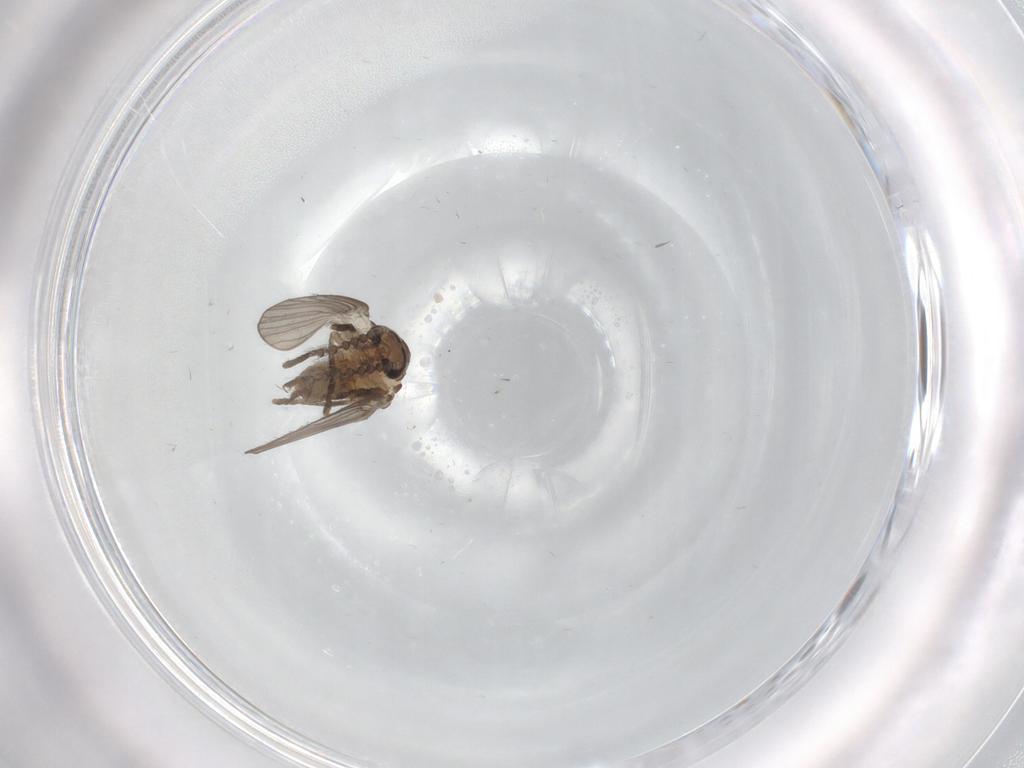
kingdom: Animalia
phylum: Arthropoda
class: Insecta
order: Diptera
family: Psychodidae
